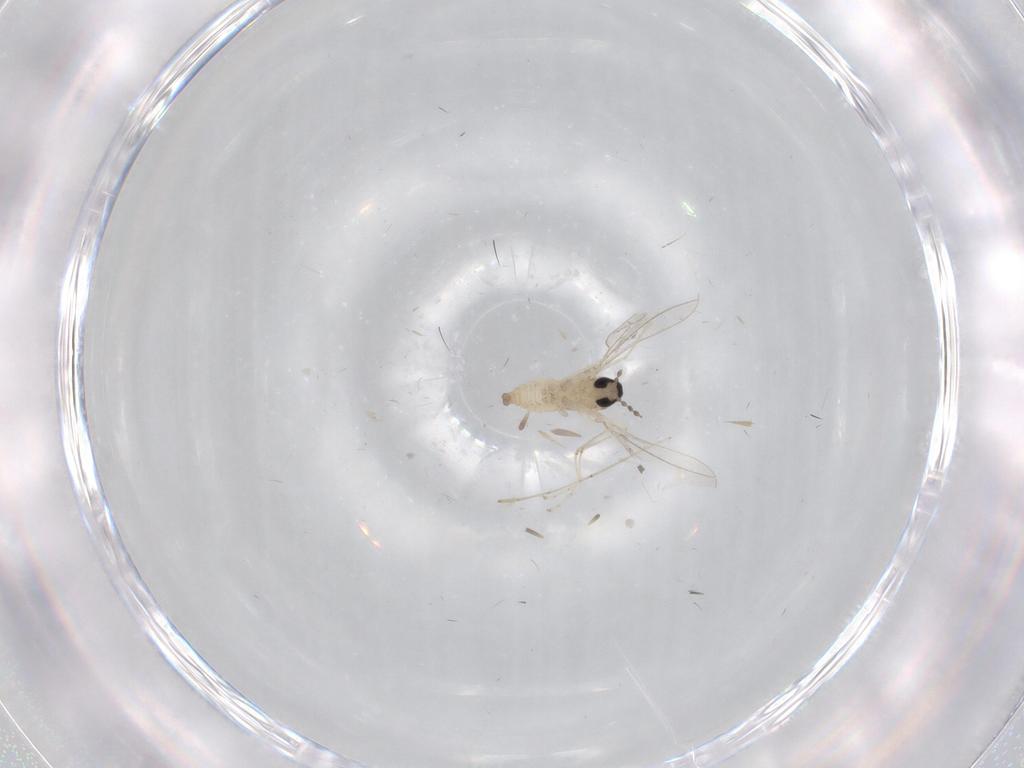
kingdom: Animalia
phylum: Arthropoda
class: Insecta
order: Diptera
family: Cecidomyiidae
